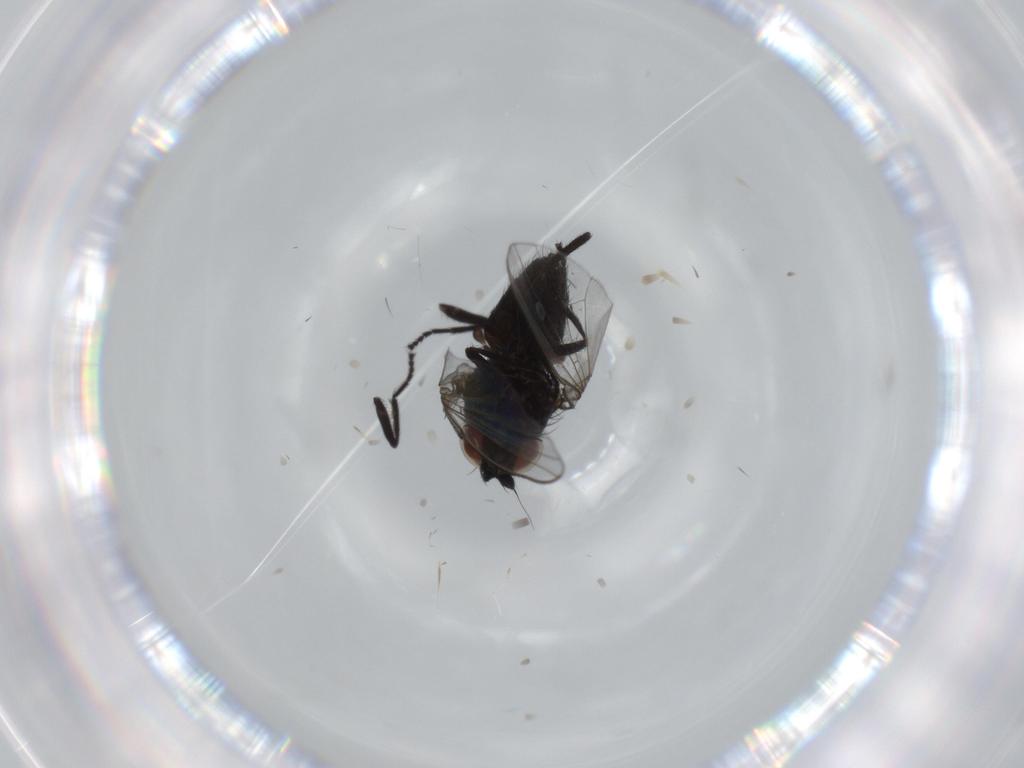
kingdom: Animalia
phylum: Arthropoda
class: Insecta
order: Diptera
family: Milichiidae
